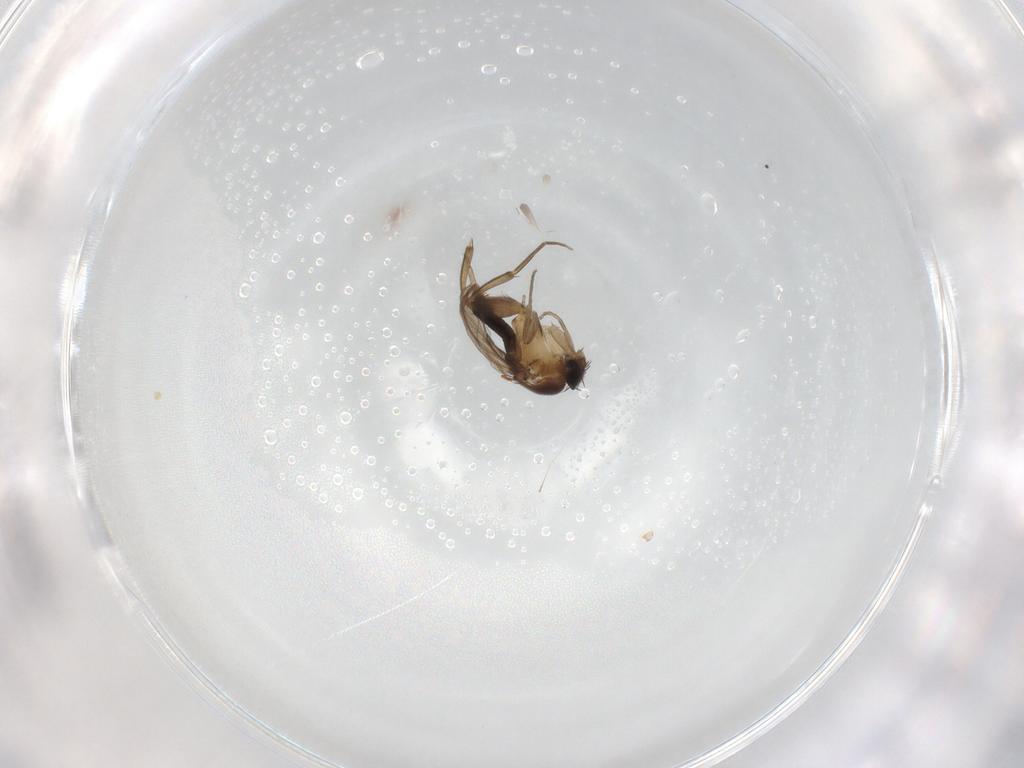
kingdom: Animalia
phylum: Arthropoda
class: Insecta
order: Diptera
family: Phoridae
